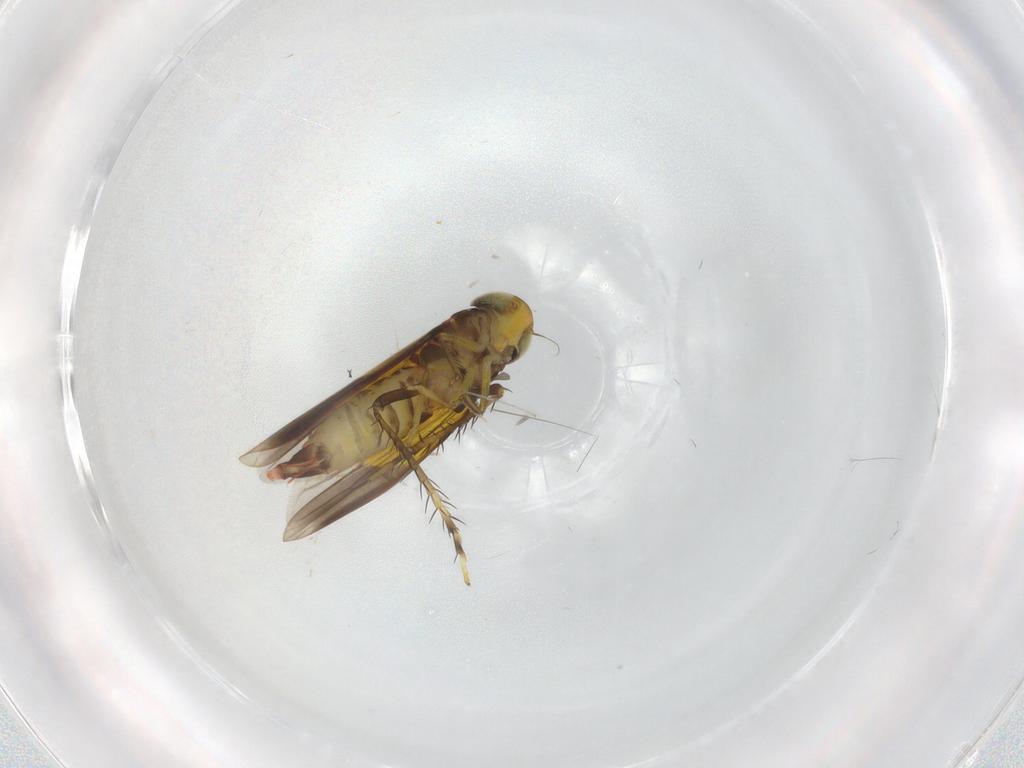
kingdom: Animalia
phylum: Arthropoda
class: Insecta
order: Hemiptera
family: Cicadellidae
